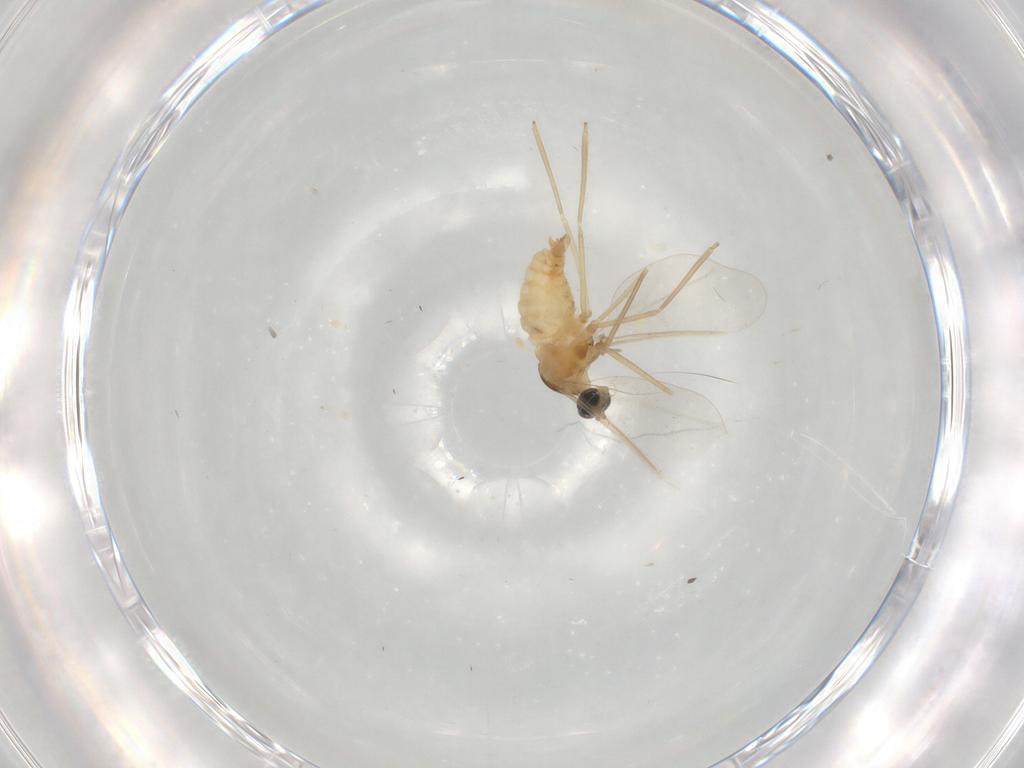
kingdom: Animalia
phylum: Arthropoda
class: Insecta
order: Diptera
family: Cecidomyiidae
